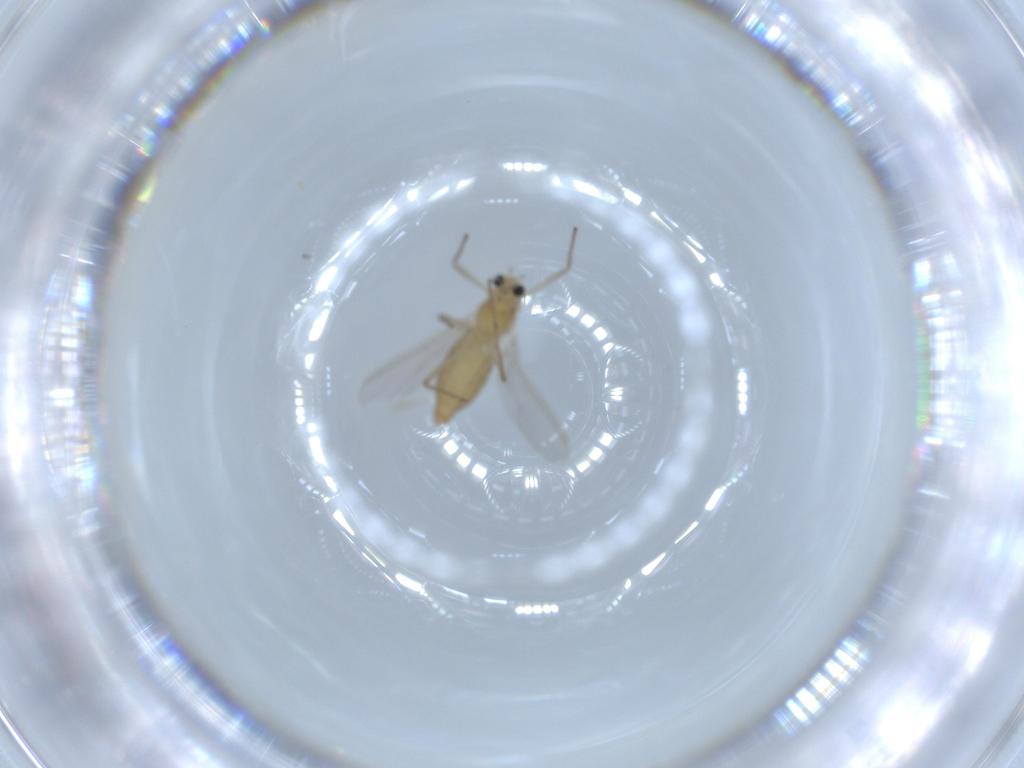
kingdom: Animalia
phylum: Arthropoda
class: Insecta
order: Diptera
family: Chironomidae
